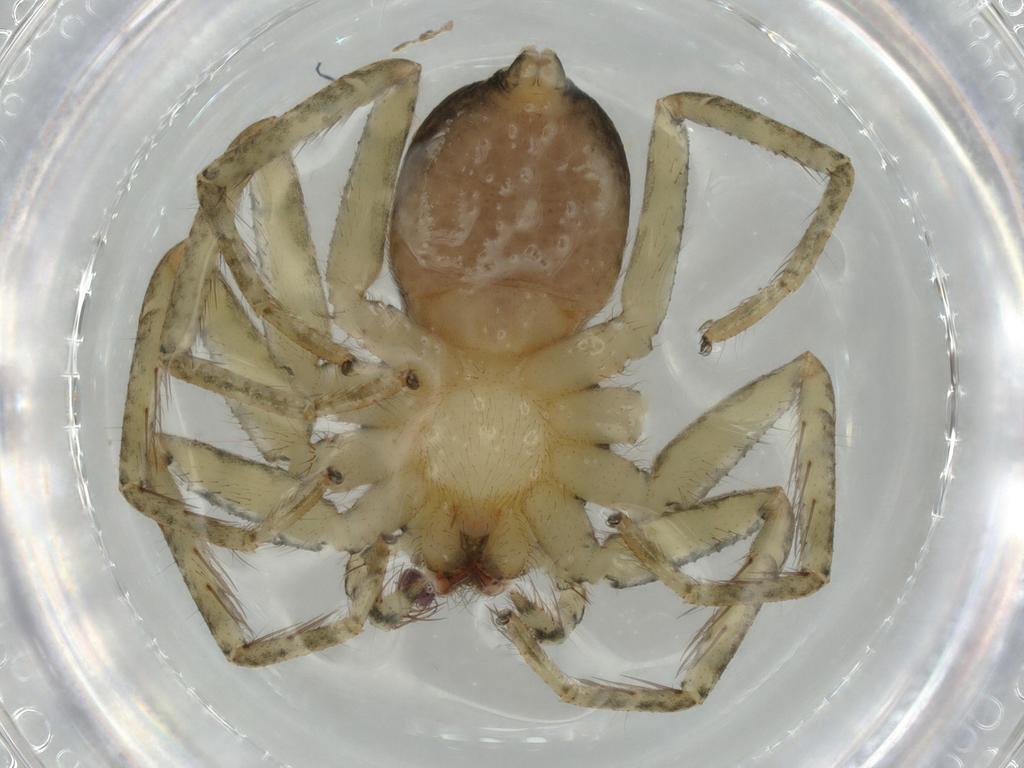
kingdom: Animalia
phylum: Arthropoda
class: Arachnida
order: Araneae
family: Selenopidae
